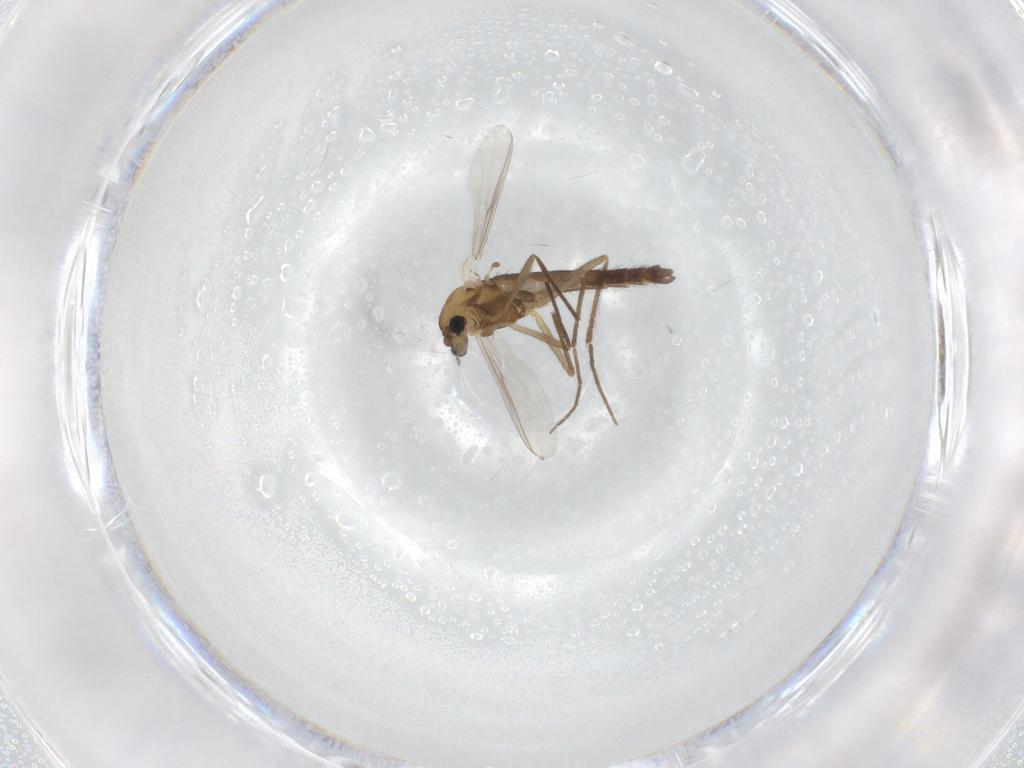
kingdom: Animalia
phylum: Arthropoda
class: Insecta
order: Diptera
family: Chironomidae
